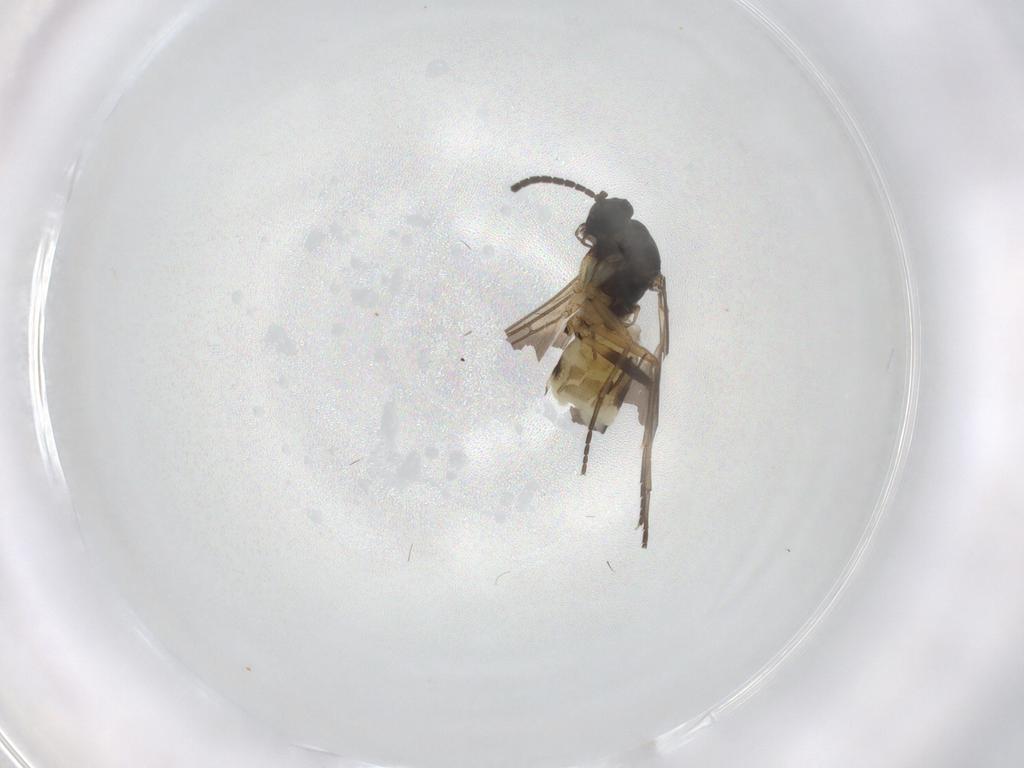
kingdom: Animalia
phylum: Arthropoda
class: Insecta
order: Diptera
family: Sciaridae
